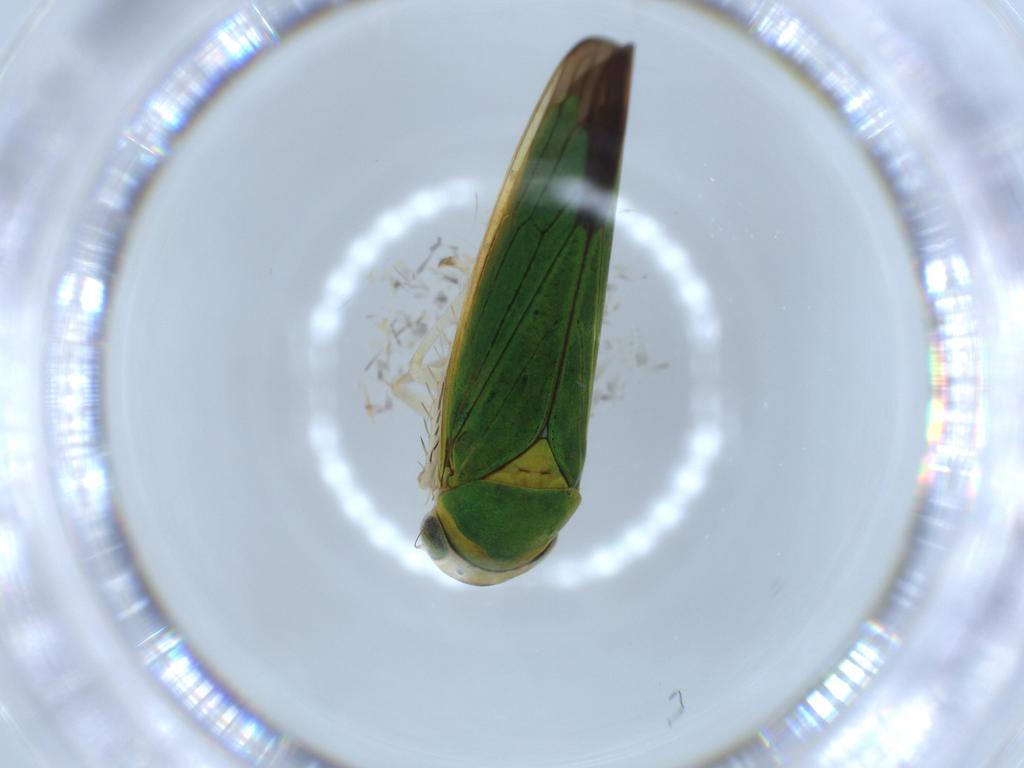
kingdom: Animalia
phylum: Arthropoda
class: Insecta
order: Hemiptera
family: Cicadellidae
